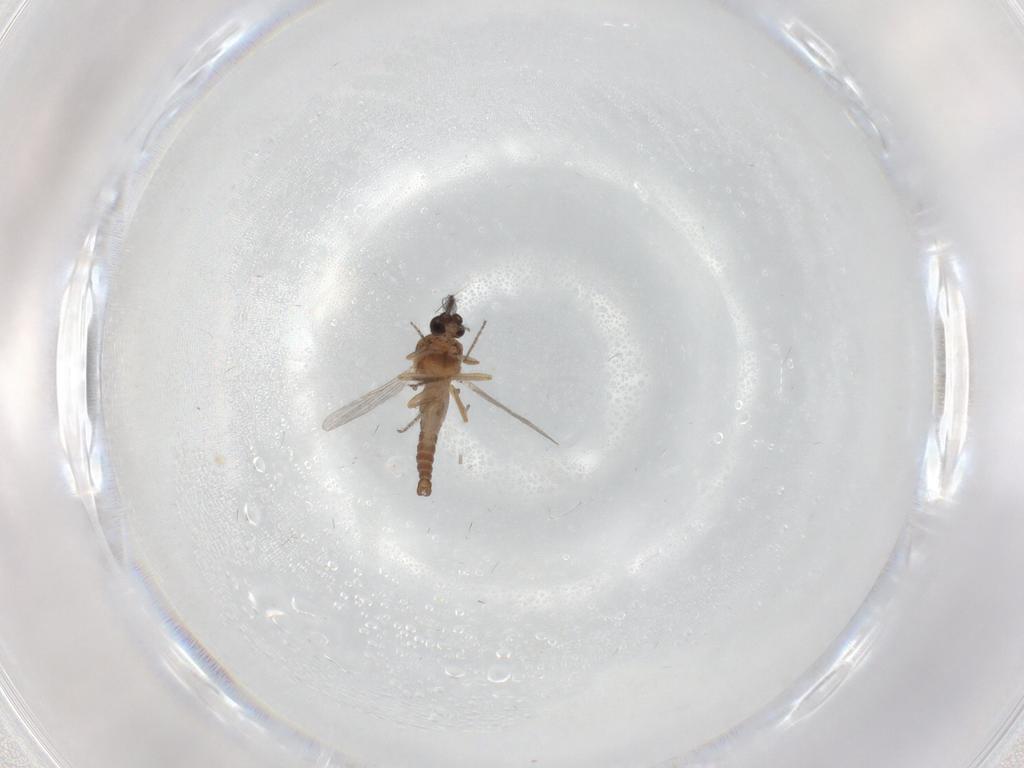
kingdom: Animalia
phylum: Arthropoda
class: Insecta
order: Diptera
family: Ceratopogonidae
